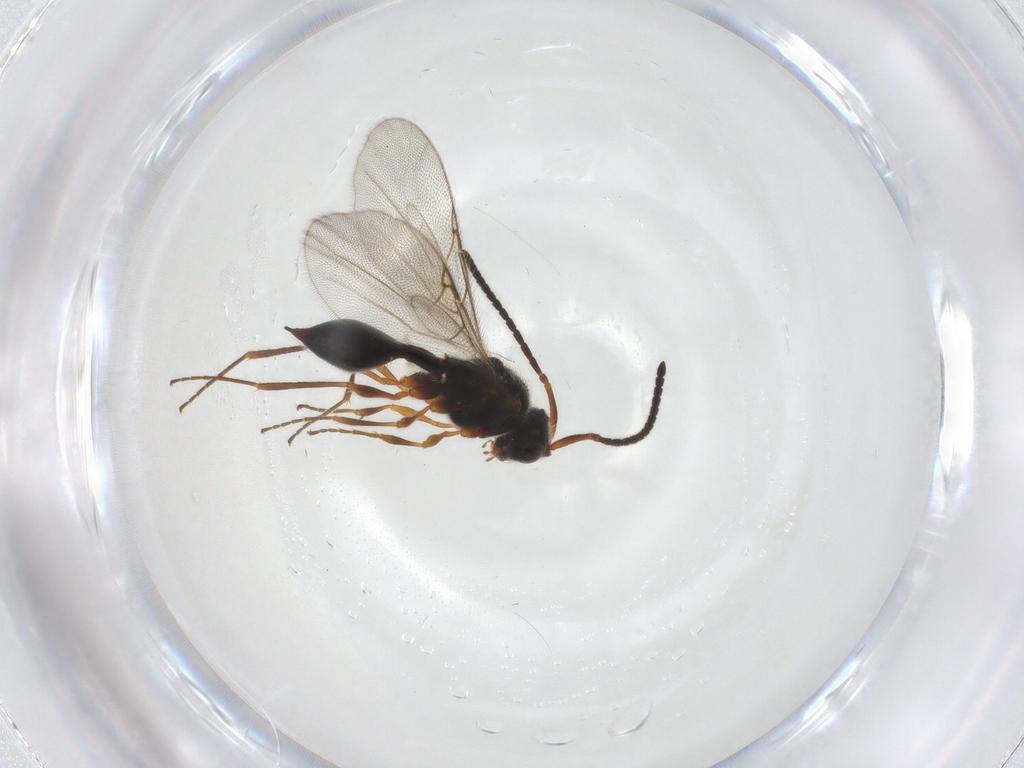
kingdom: Animalia
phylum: Arthropoda
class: Insecta
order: Hymenoptera
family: Diapriidae
